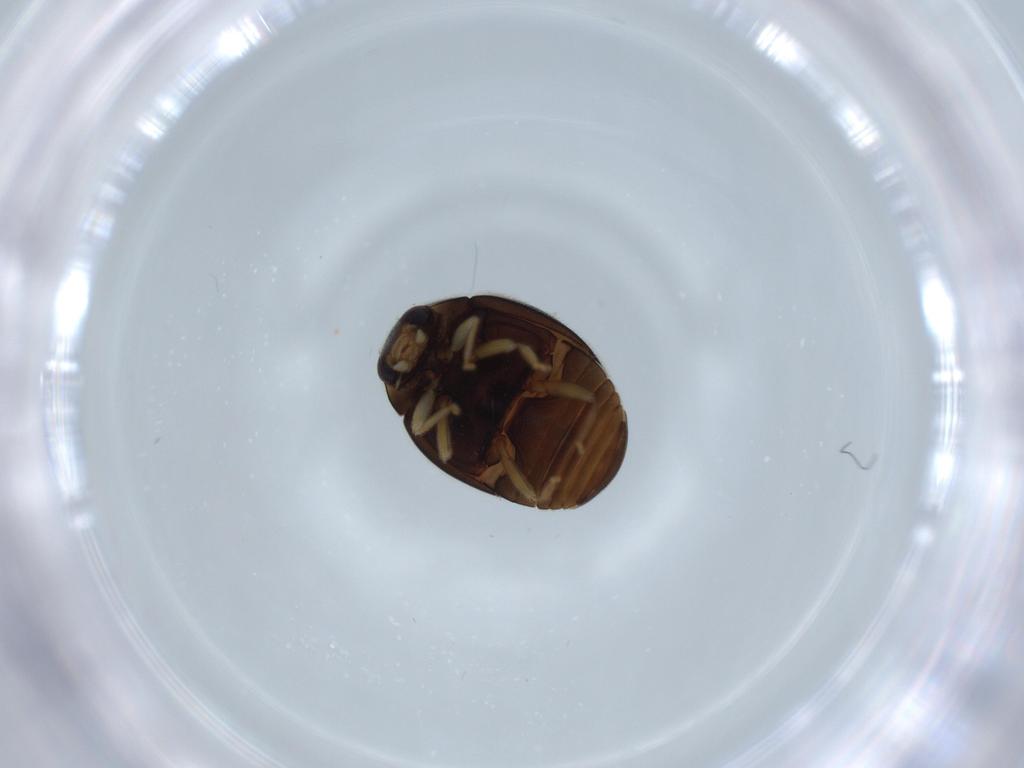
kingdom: Animalia
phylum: Arthropoda
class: Insecta
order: Coleoptera
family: Coccinellidae
